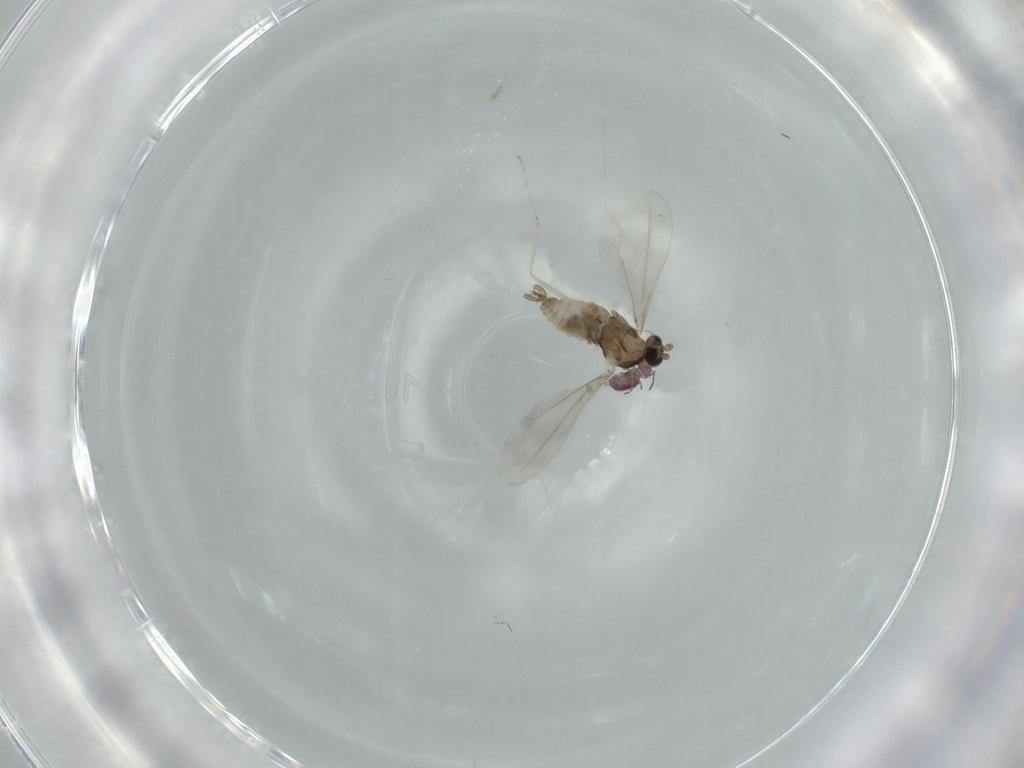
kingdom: Animalia
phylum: Arthropoda
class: Insecta
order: Diptera
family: Cecidomyiidae
